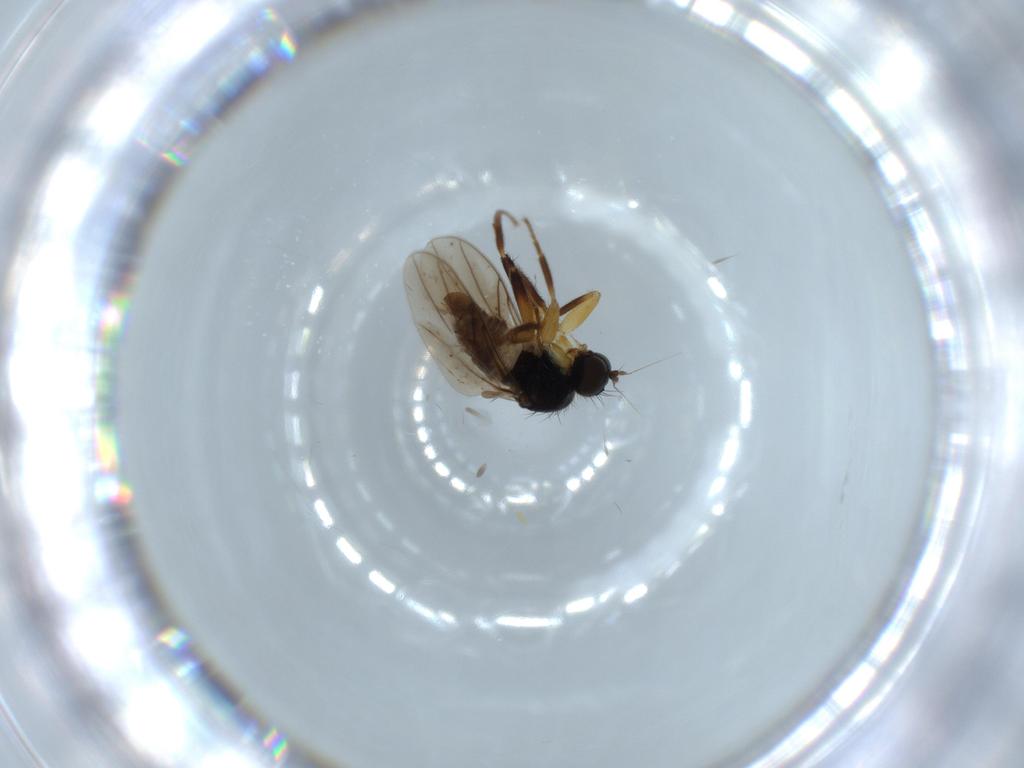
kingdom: Animalia
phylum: Arthropoda
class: Insecta
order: Diptera
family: Hybotidae
